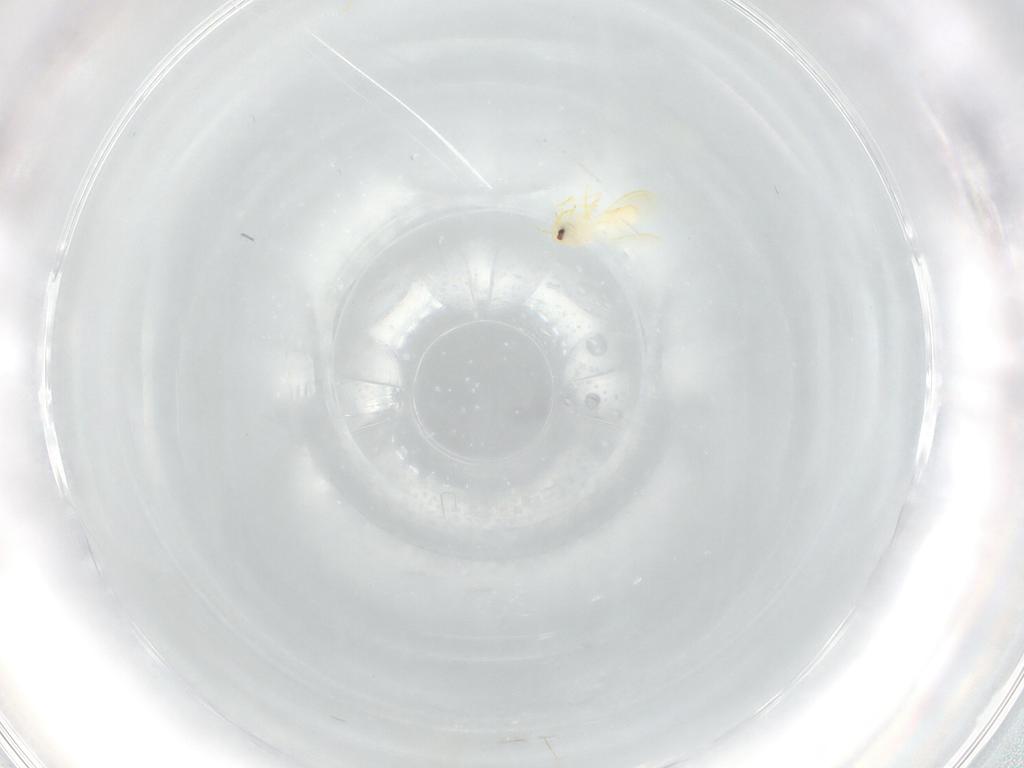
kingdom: Animalia
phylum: Arthropoda
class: Insecta
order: Hemiptera
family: Aleyrodidae
